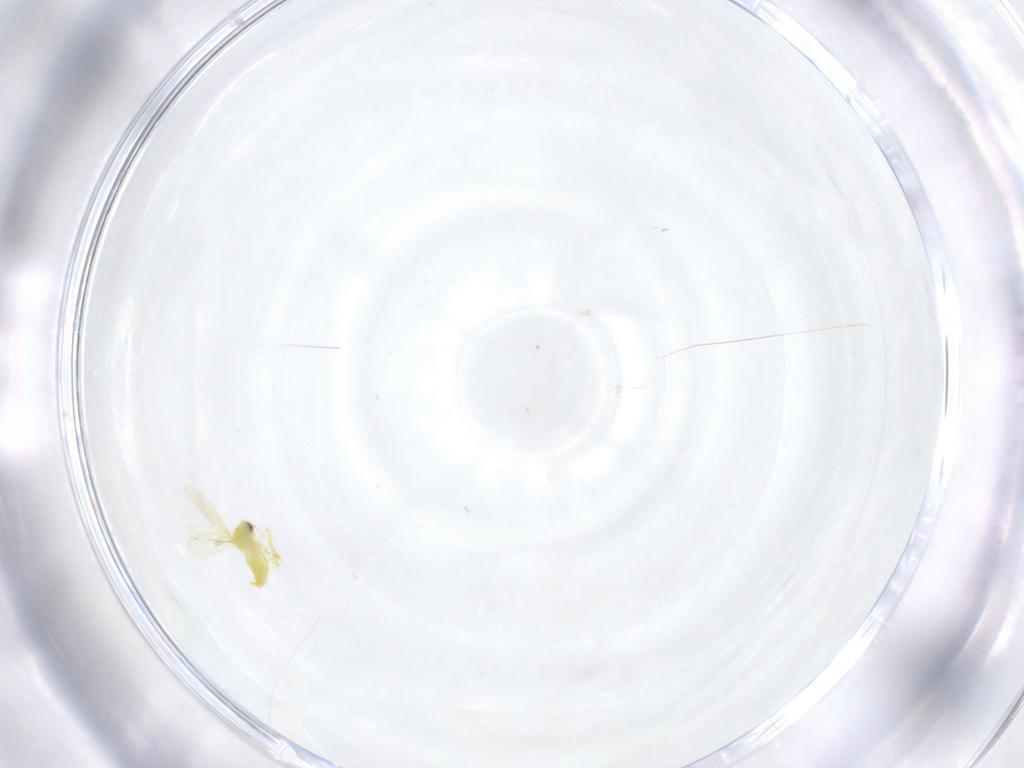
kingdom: Animalia
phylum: Arthropoda
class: Insecta
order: Hemiptera
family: Aleyrodidae
